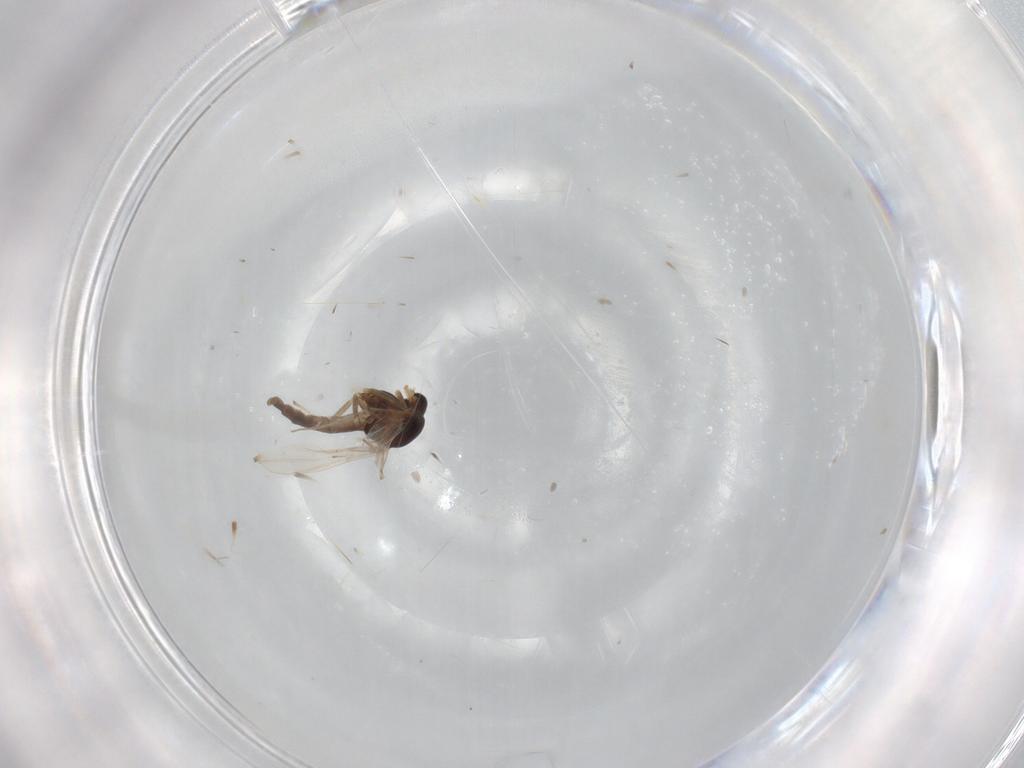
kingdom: Animalia
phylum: Arthropoda
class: Insecta
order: Diptera
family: Chironomidae
